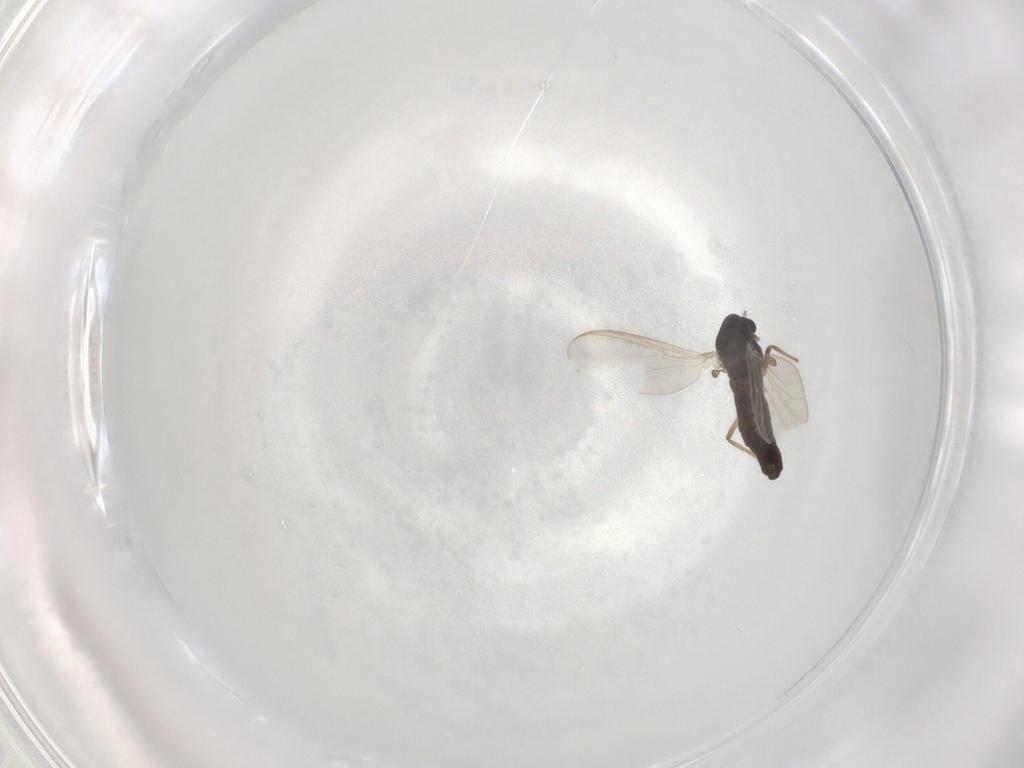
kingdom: Animalia
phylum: Arthropoda
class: Insecta
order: Diptera
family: Chironomidae
